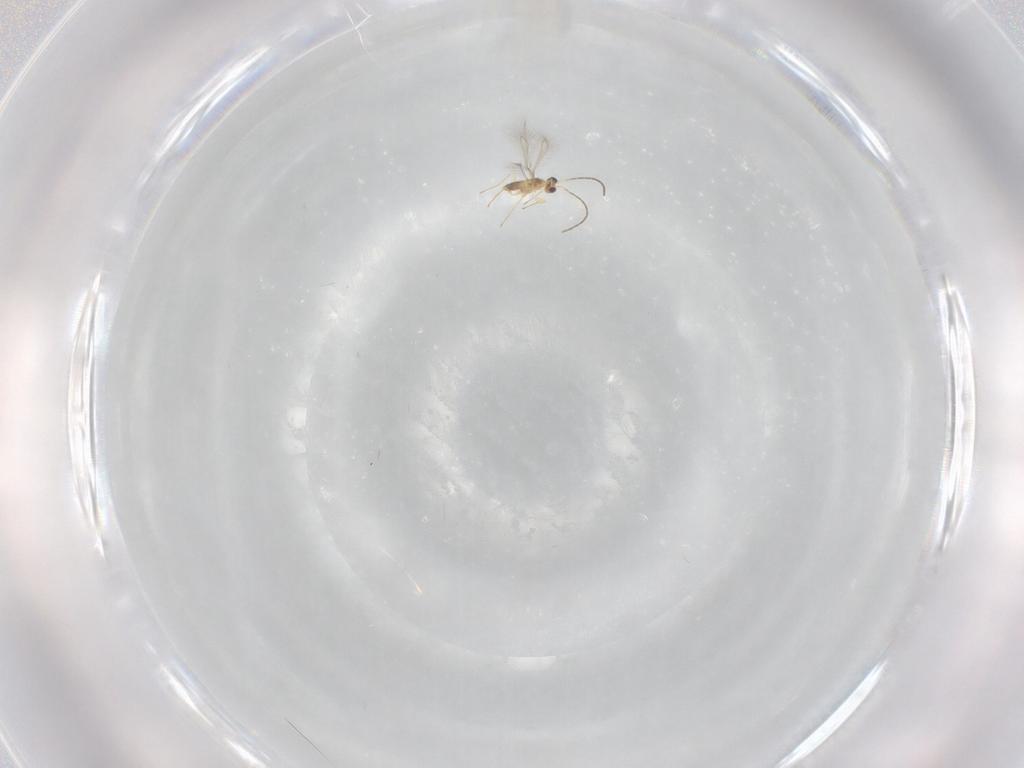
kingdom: Animalia
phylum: Arthropoda
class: Insecta
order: Hymenoptera
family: Mymaridae
